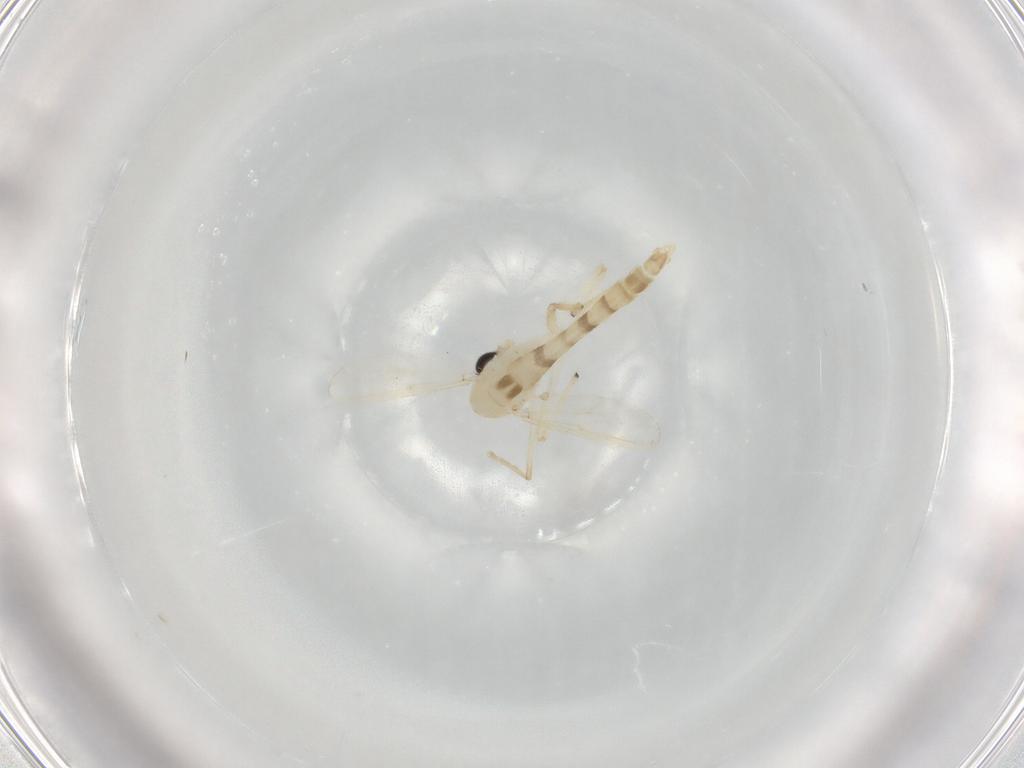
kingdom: Animalia
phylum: Arthropoda
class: Insecta
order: Diptera
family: Chironomidae
